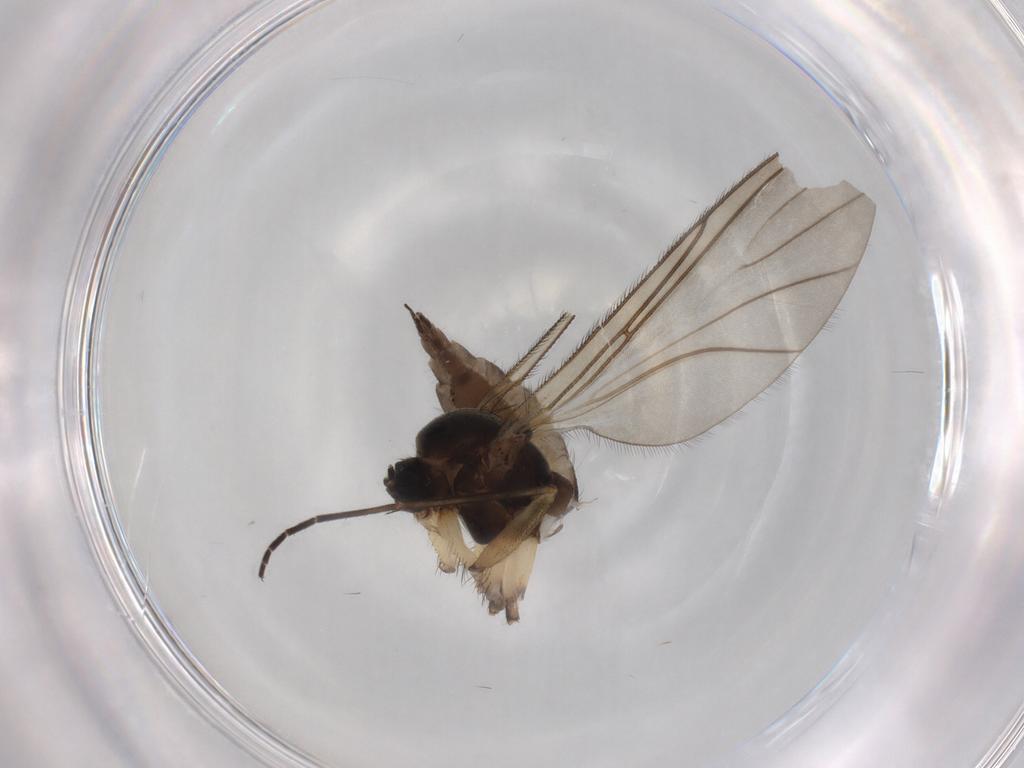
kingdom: Animalia
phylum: Arthropoda
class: Insecta
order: Diptera
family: Sciaridae
